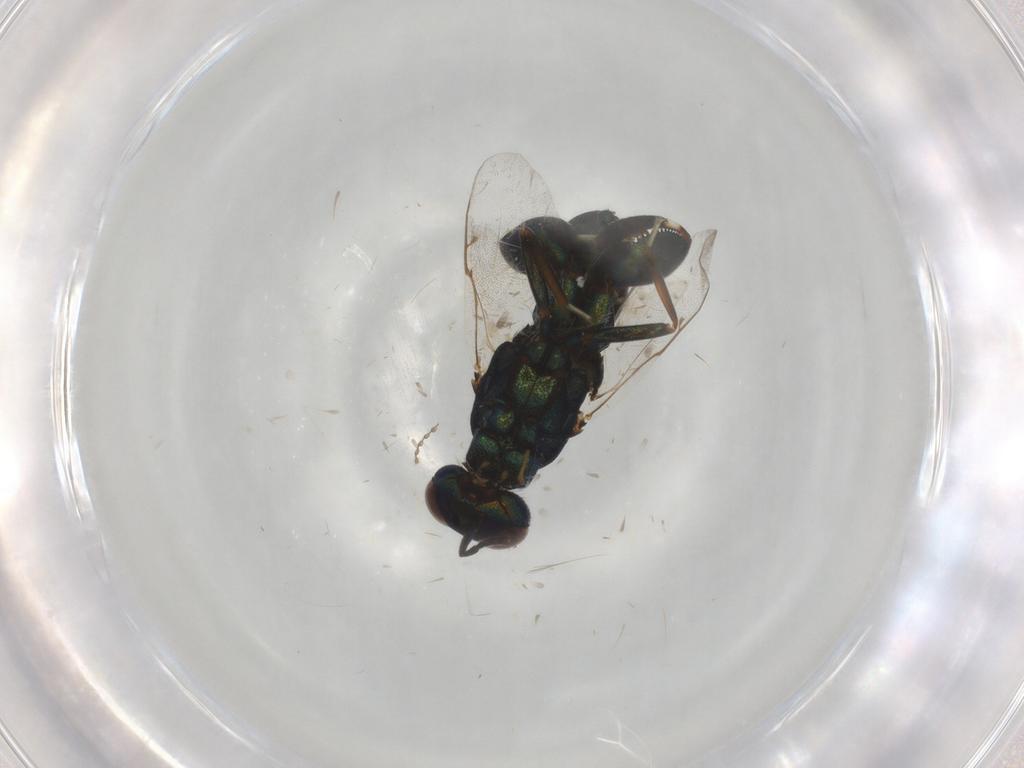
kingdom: Animalia
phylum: Arthropoda
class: Insecta
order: Hymenoptera
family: Formicidae
